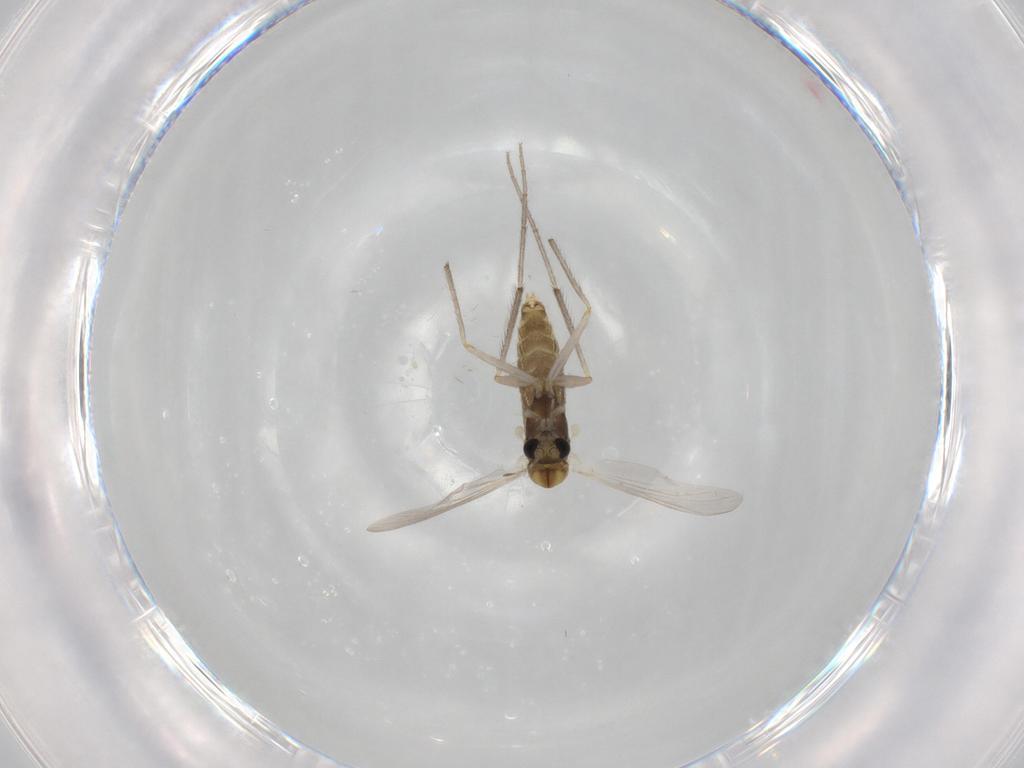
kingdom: Animalia
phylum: Arthropoda
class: Insecta
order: Diptera
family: Chironomidae
